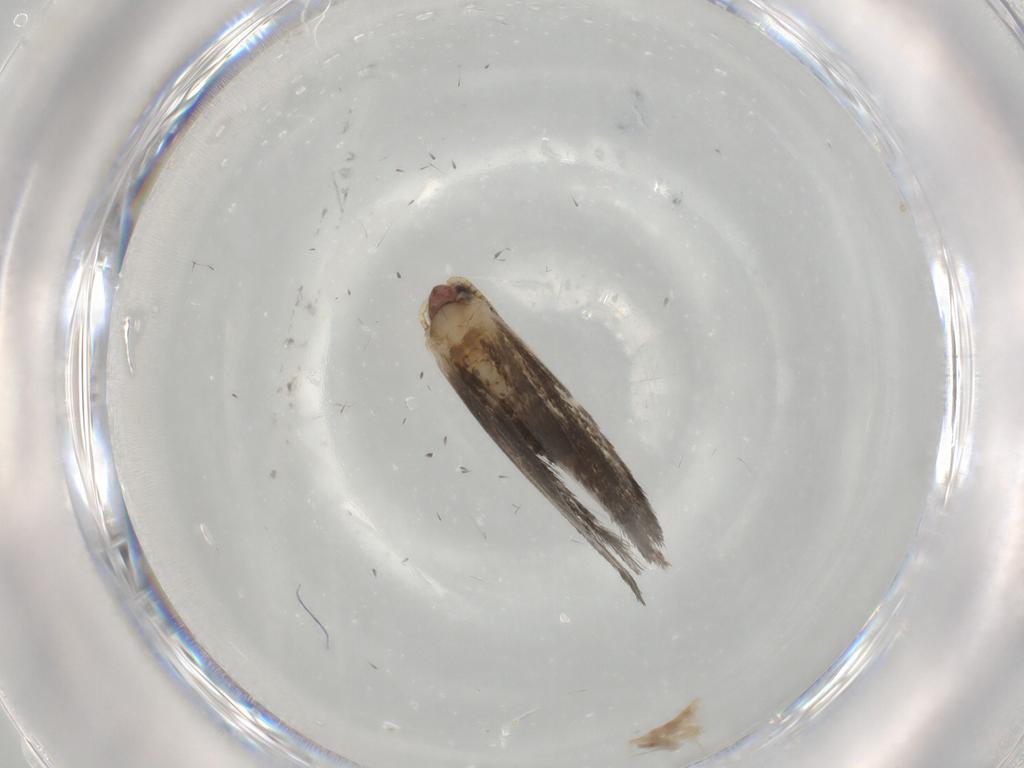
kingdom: Animalia
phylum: Arthropoda
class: Insecta
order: Lepidoptera
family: Tineidae
